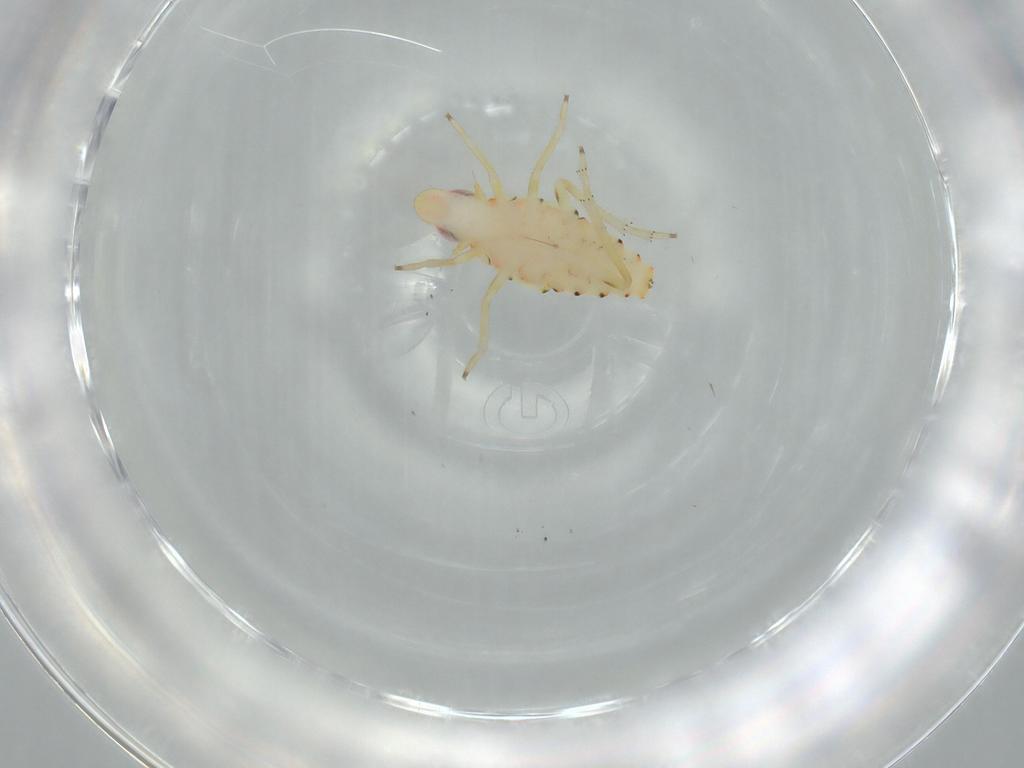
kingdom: Animalia
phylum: Arthropoda
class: Insecta
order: Hemiptera
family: Tropiduchidae
